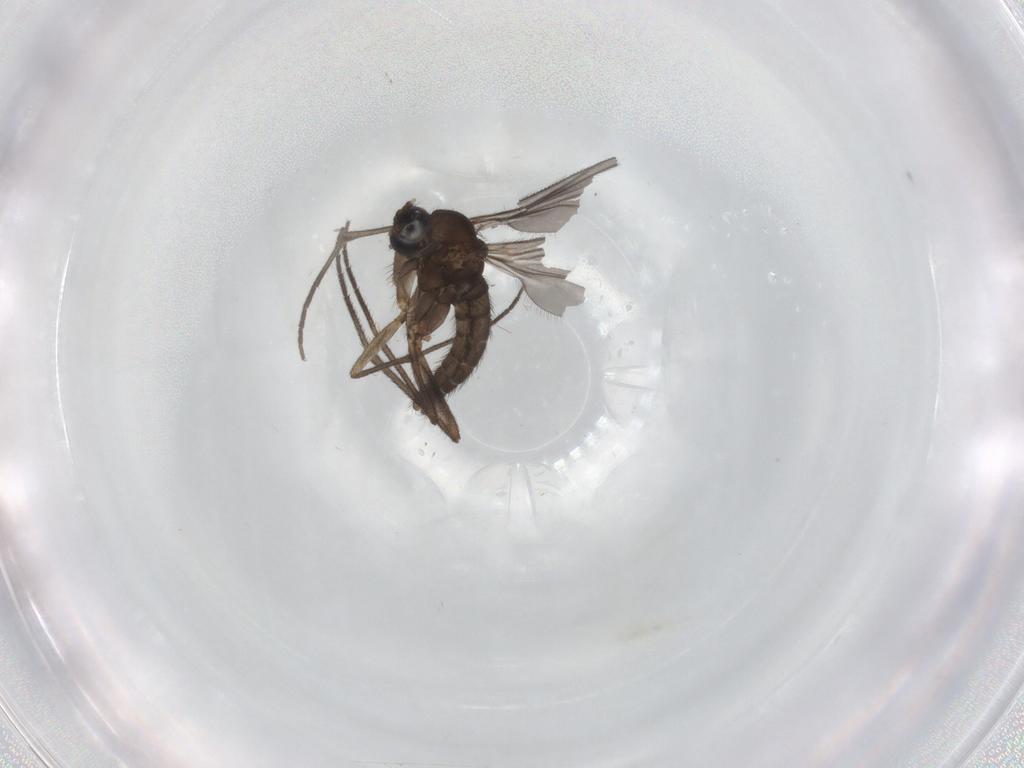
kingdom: Animalia
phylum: Arthropoda
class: Insecta
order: Diptera
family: Sciaridae
